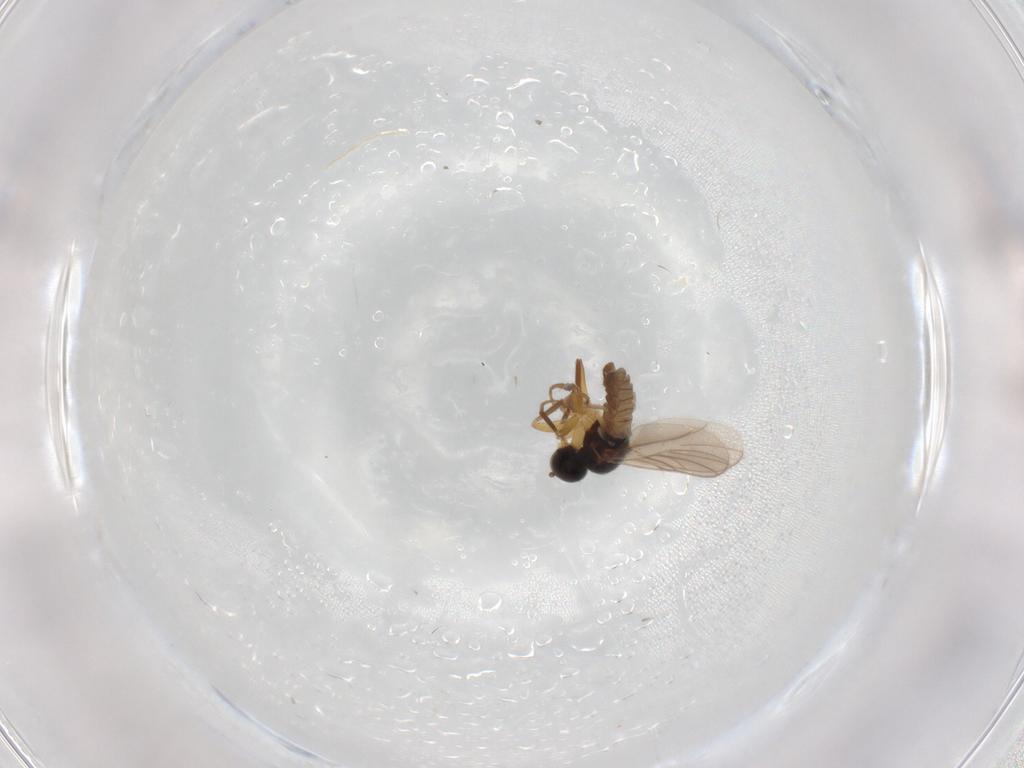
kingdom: Animalia
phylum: Arthropoda
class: Insecta
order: Diptera
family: Hybotidae
